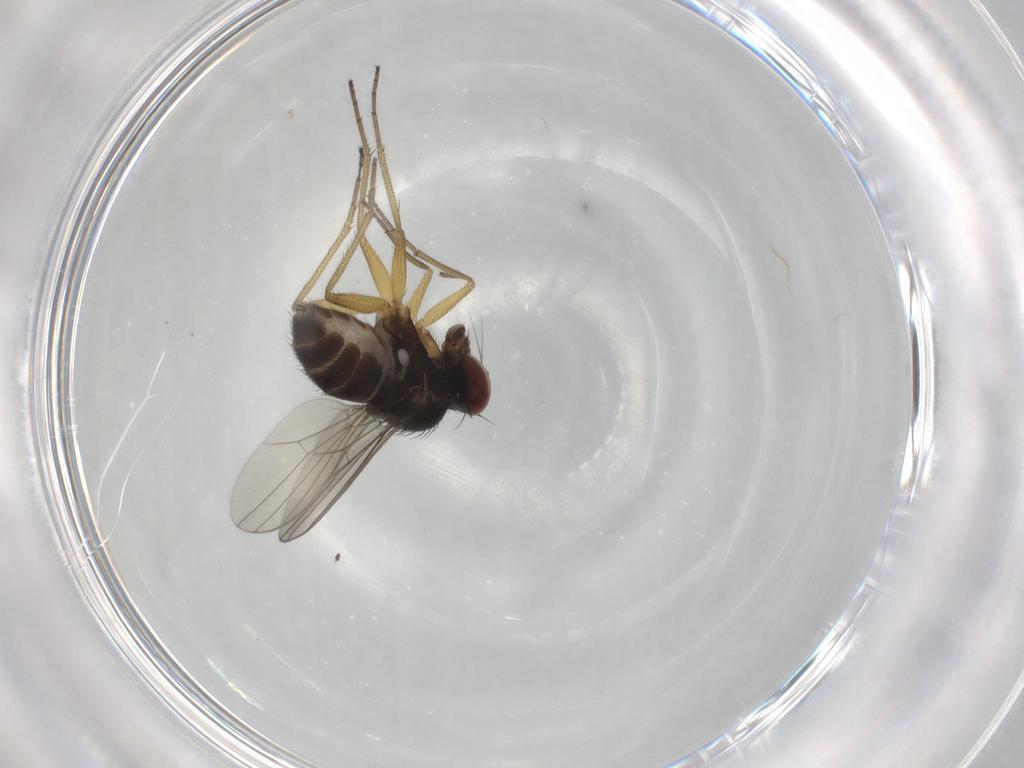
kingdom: Animalia
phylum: Arthropoda
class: Insecta
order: Diptera
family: Dolichopodidae
